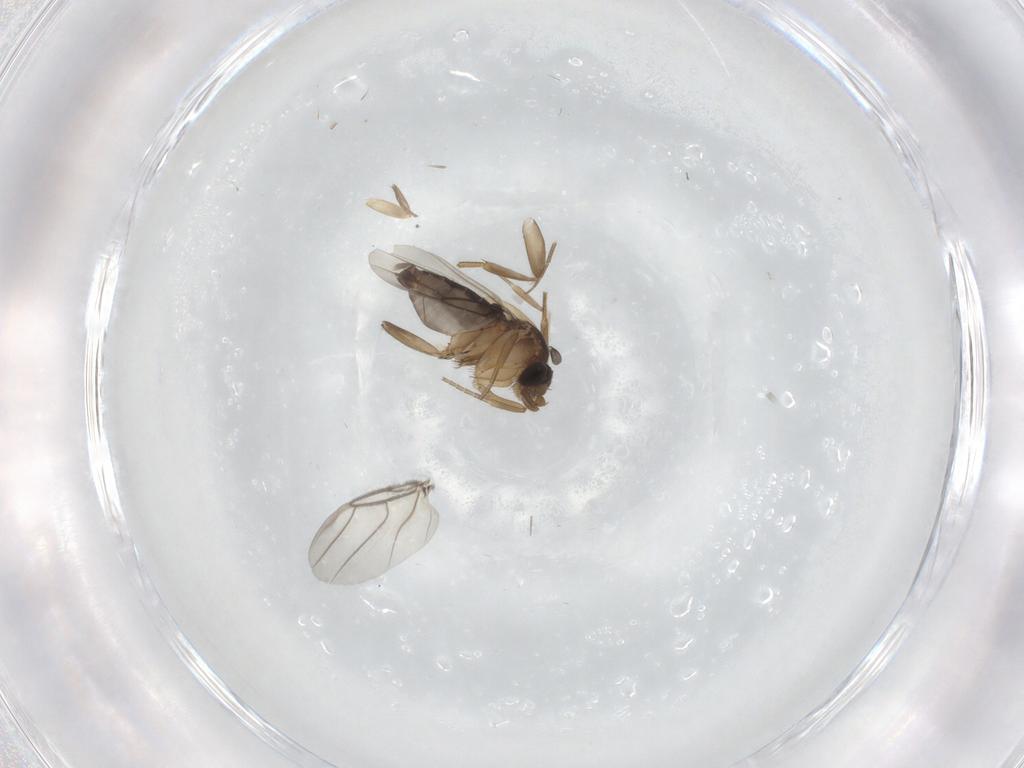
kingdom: Animalia
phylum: Arthropoda
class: Insecta
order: Diptera
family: Phoridae
